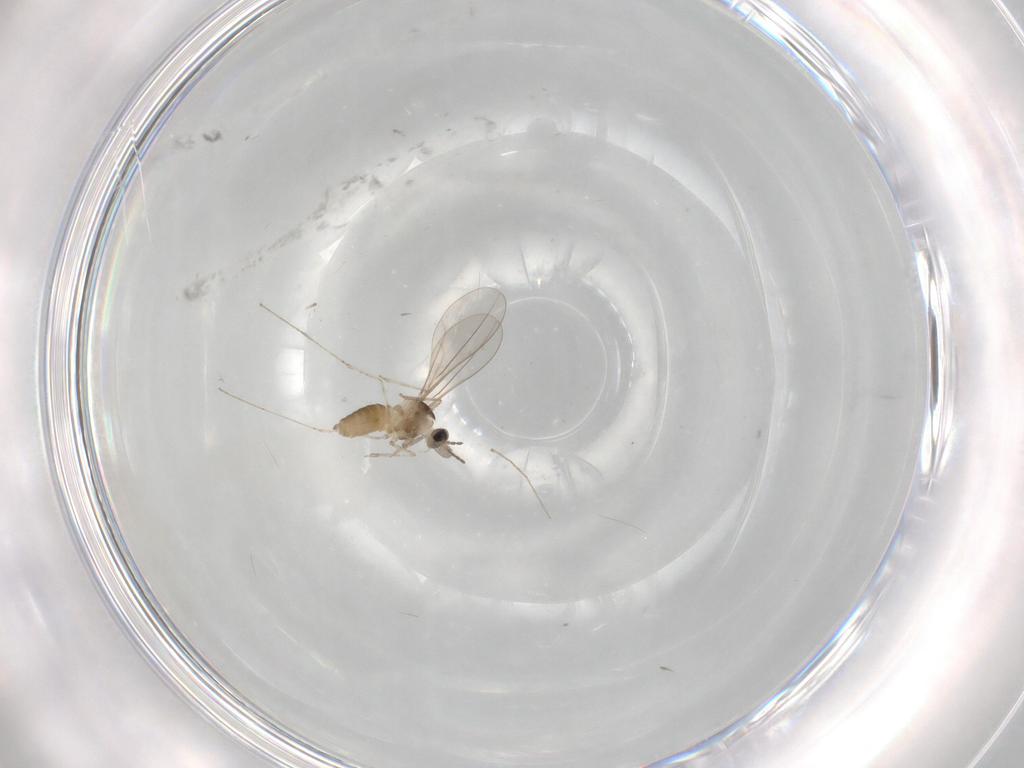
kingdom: Animalia
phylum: Arthropoda
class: Insecta
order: Diptera
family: Cecidomyiidae
